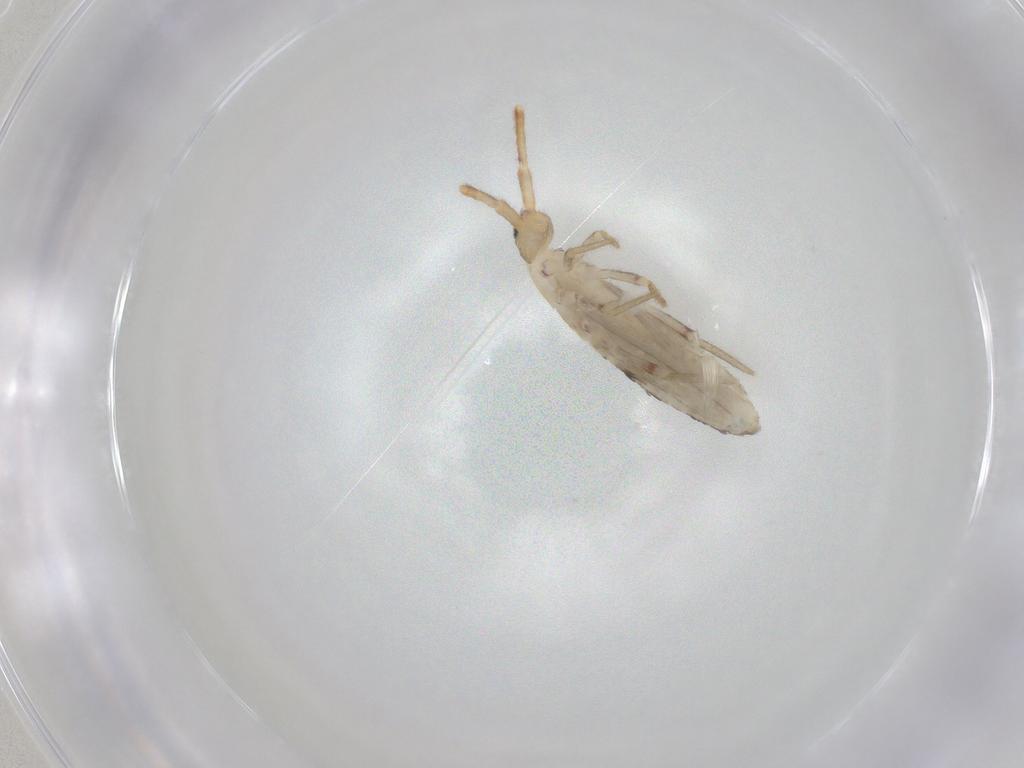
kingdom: Animalia
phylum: Arthropoda
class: Collembola
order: Poduromorpha
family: Hypogastruridae
